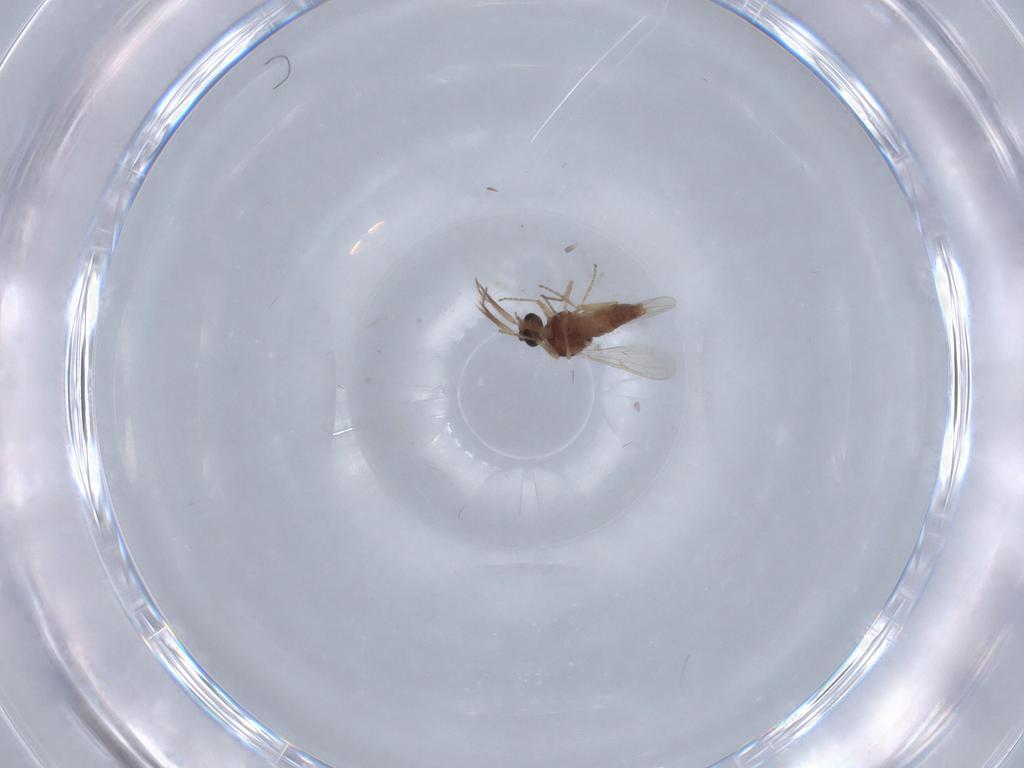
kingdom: Animalia
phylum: Arthropoda
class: Insecta
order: Diptera
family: Ceratopogonidae
